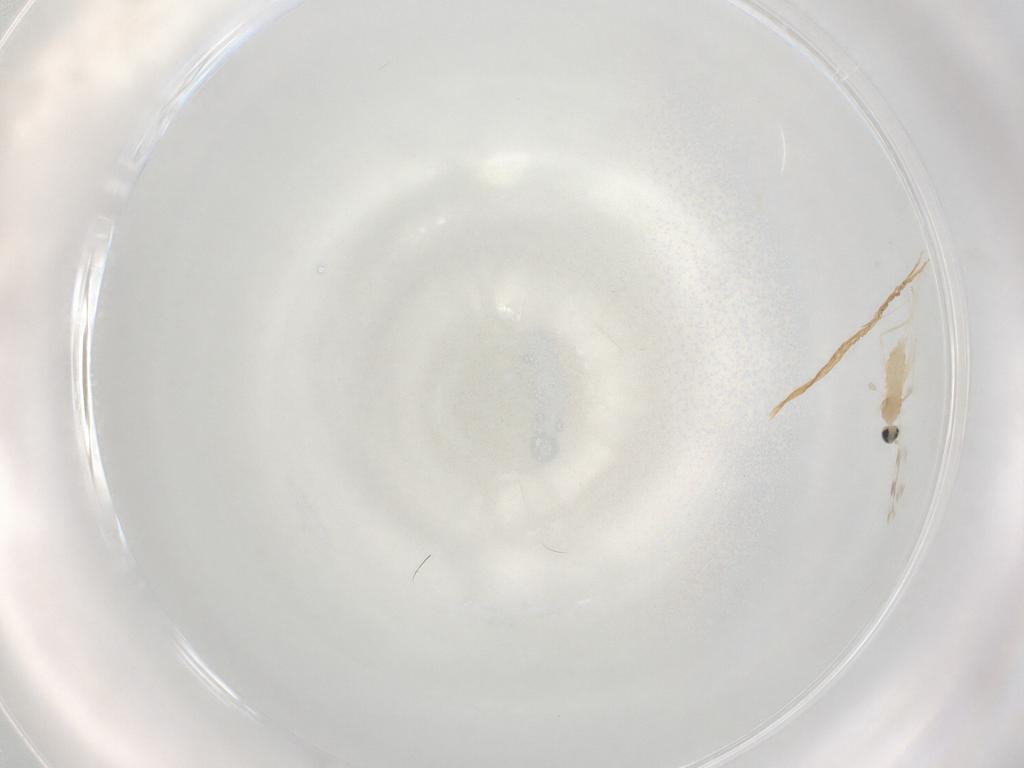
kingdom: Animalia
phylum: Arthropoda
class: Insecta
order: Diptera
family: Cecidomyiidae
